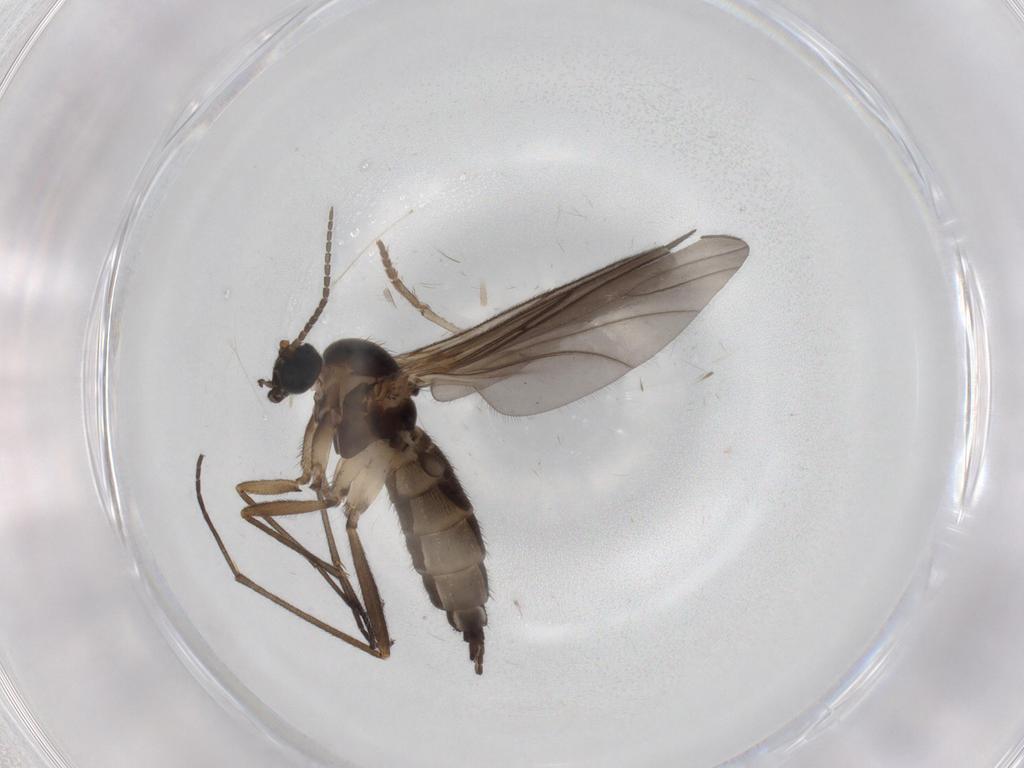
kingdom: Animalia
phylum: Arthropoda
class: Insecta
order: Diptera
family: Sciaridae
